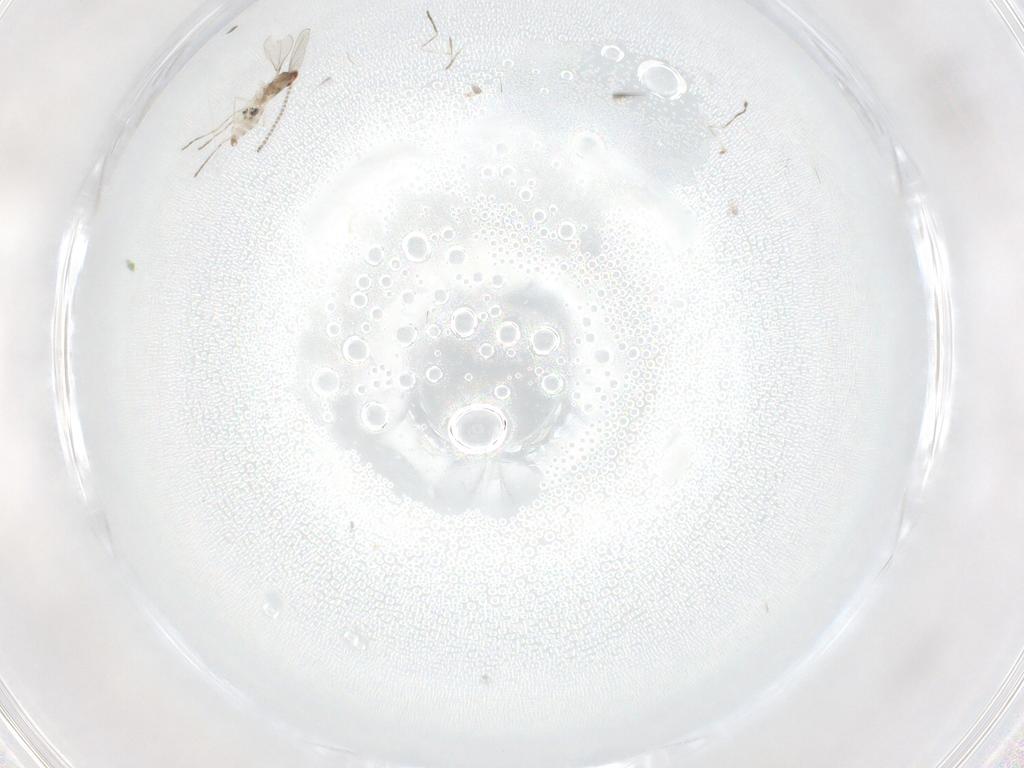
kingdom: Animalia
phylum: Arthropoda
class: Insecta
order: Diptera
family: Cecidomyiidae
